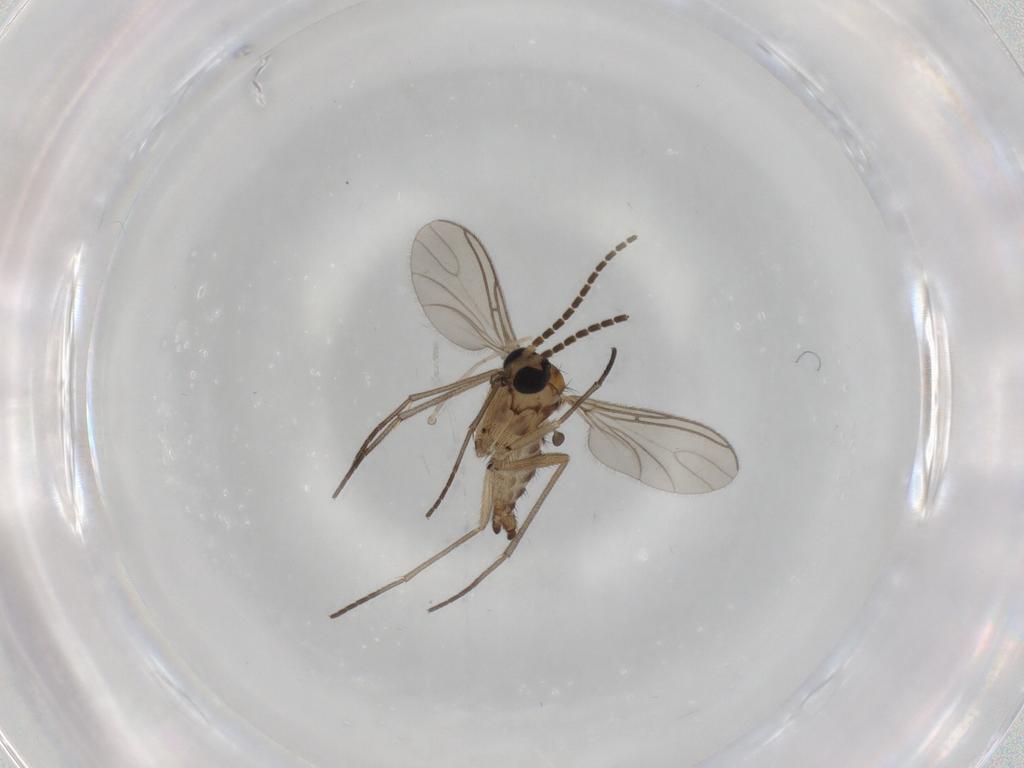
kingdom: Animalia
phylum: Arthropoda
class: Insecta
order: Diptera
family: Sciaridae
